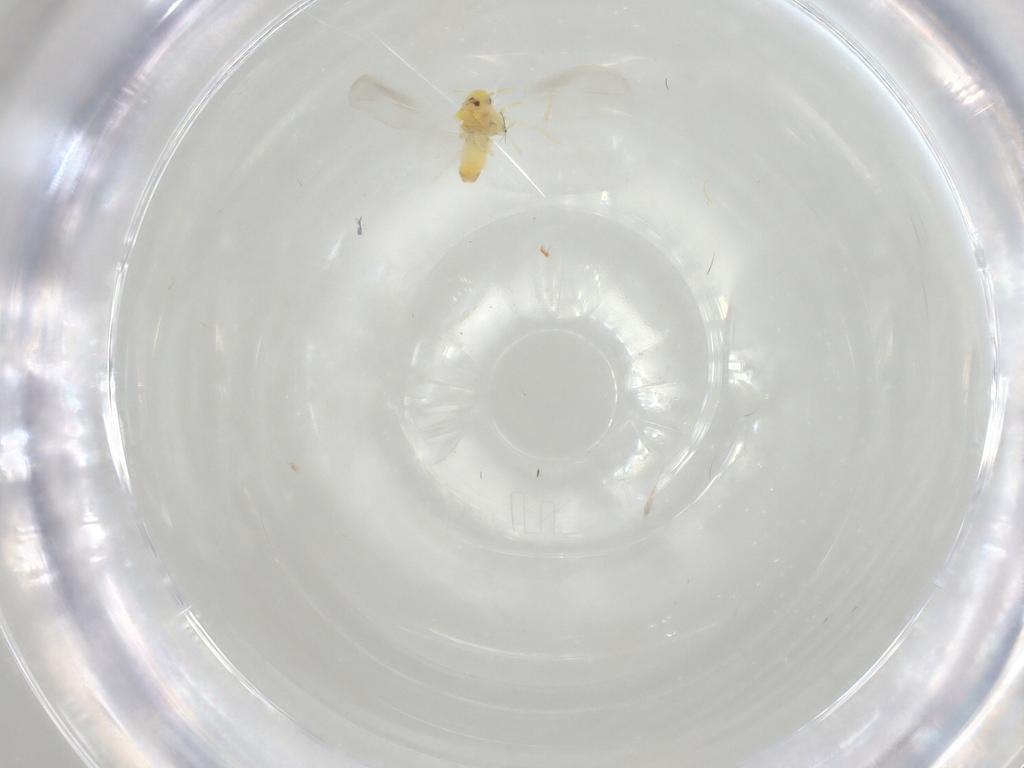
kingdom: Animalia
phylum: Arthropoda
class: Insecta
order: Hemiptera
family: Aleyrodidae
